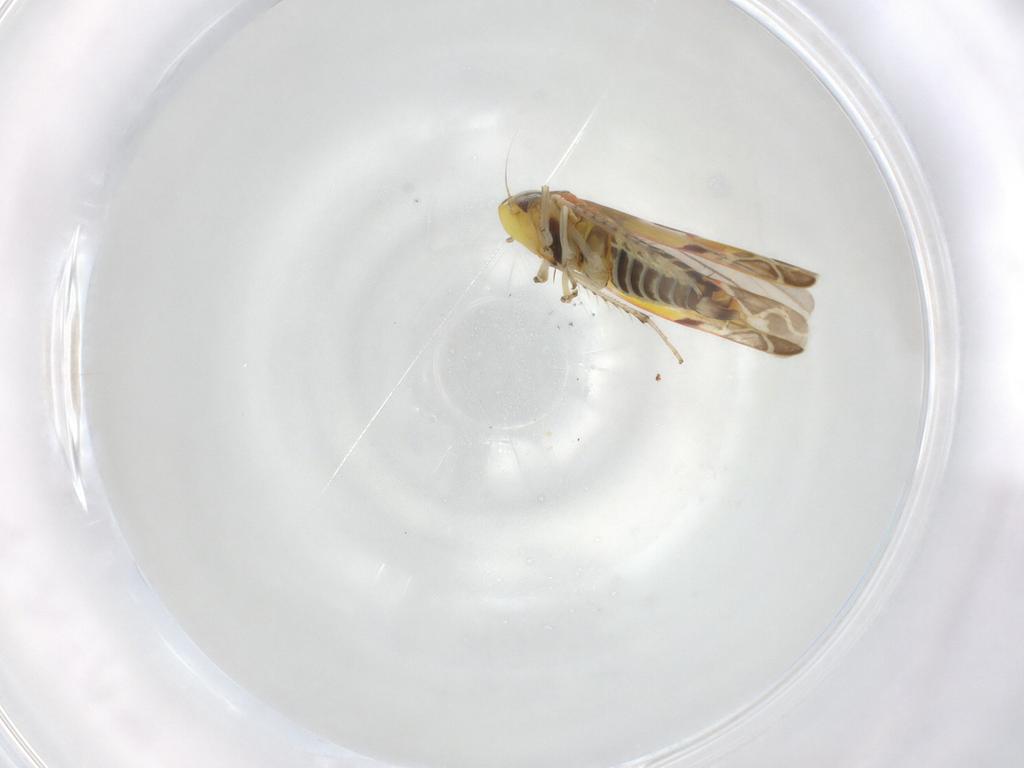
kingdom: Animalia
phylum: Arthropoda
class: Insecta
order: Hemiptera
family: Cicadellidae
